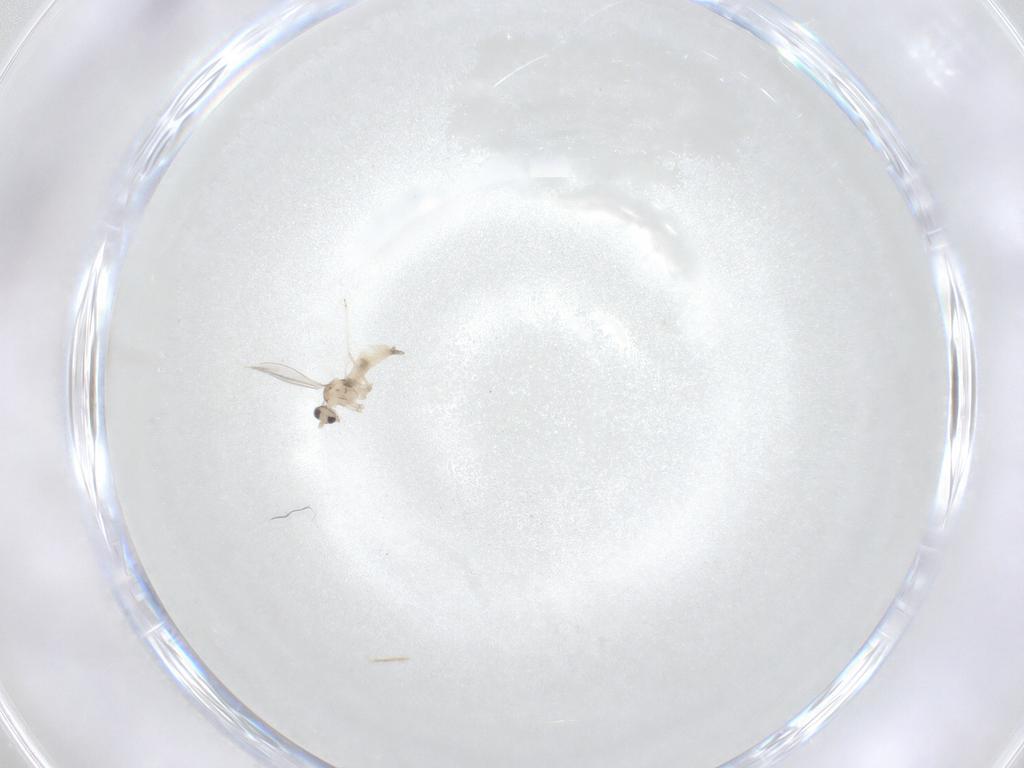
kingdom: Animalia
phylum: Arthropoda
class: Insecta
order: Diptera
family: Cecidomyiidae
